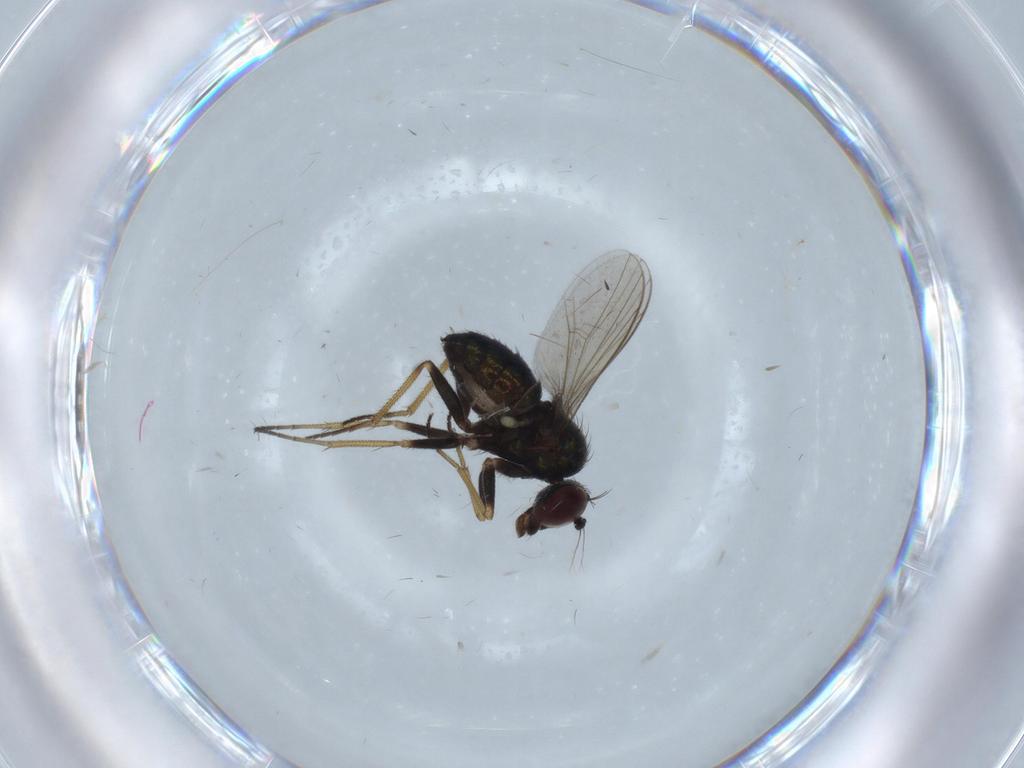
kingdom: Animalia
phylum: Arthropoda
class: Insecta
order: Diptera
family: Dolichopodidae
